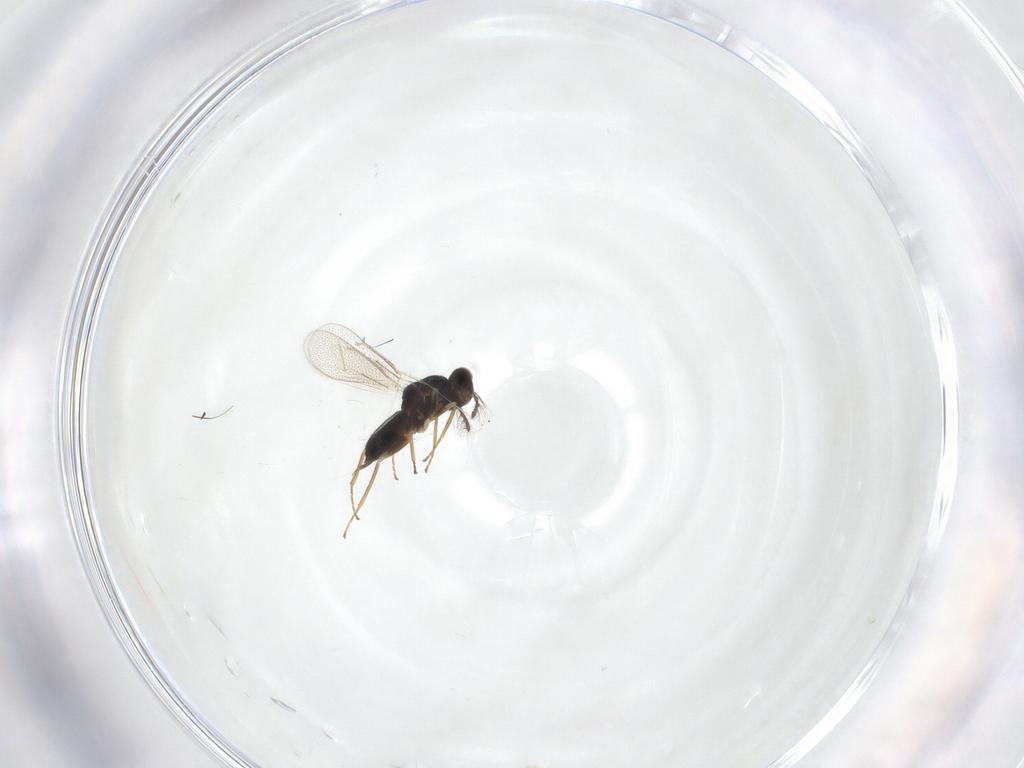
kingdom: Animalia
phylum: Arthropoda
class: Insecta
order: Hymenoptera
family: Eulophidae
